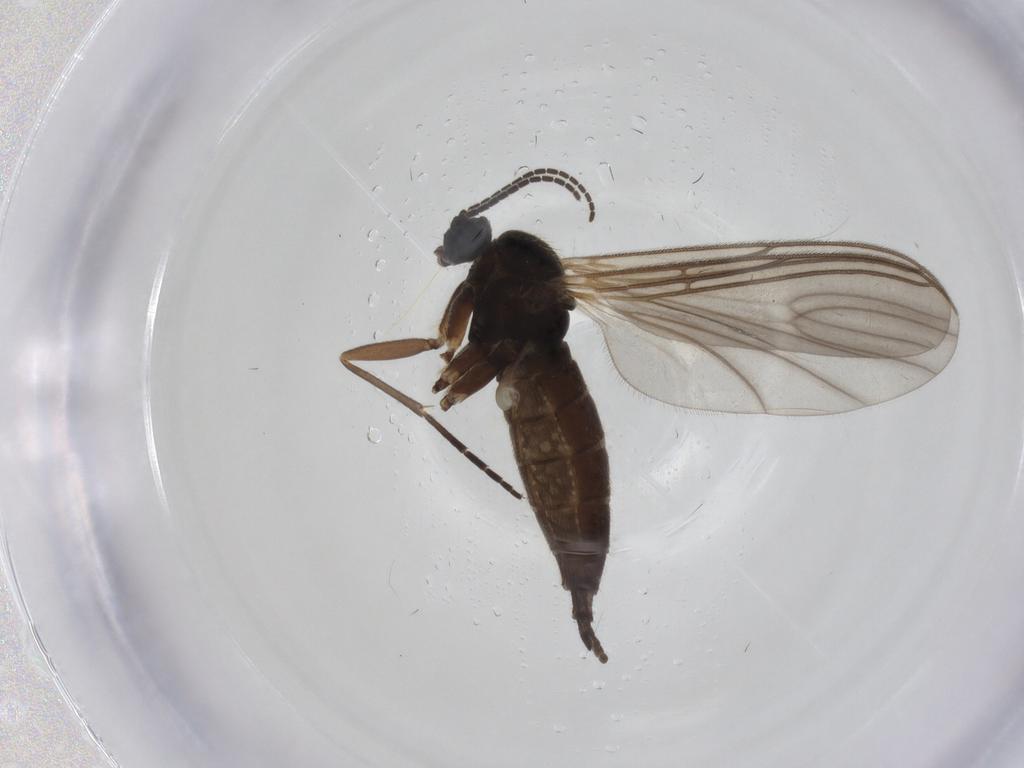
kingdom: Animalia
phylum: Arthropoda
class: Insecta
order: Diptera
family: Sciaridae
